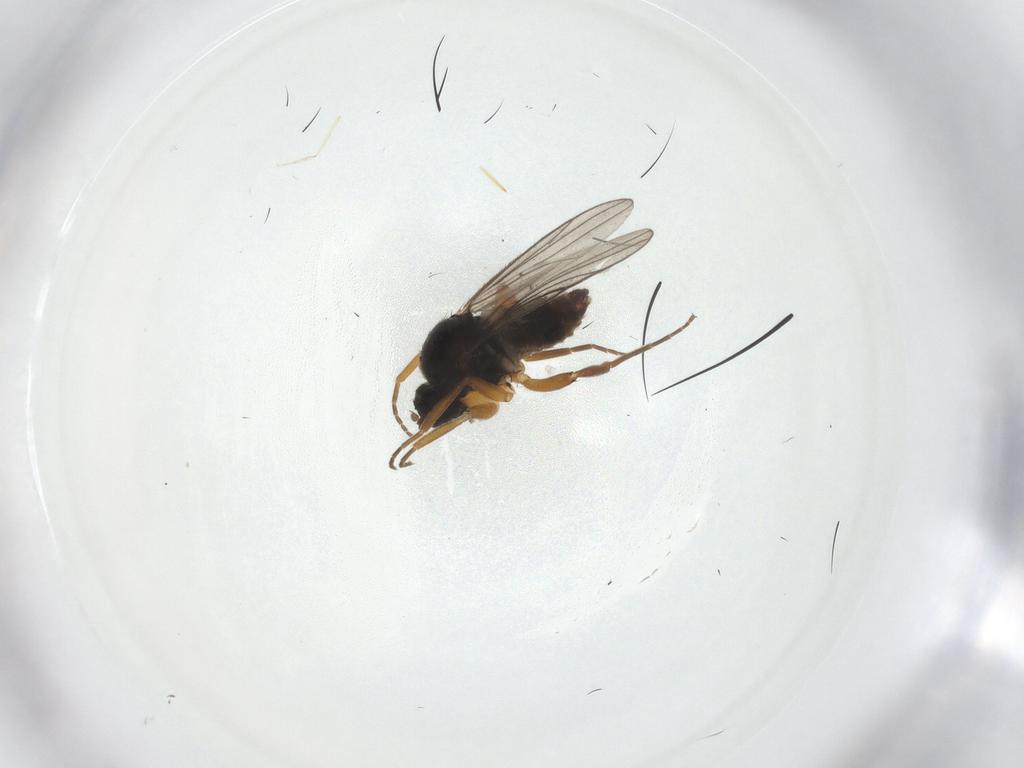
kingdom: Animalia
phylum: Arthropoda
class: Insecta
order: Diptera
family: Hybotidae
